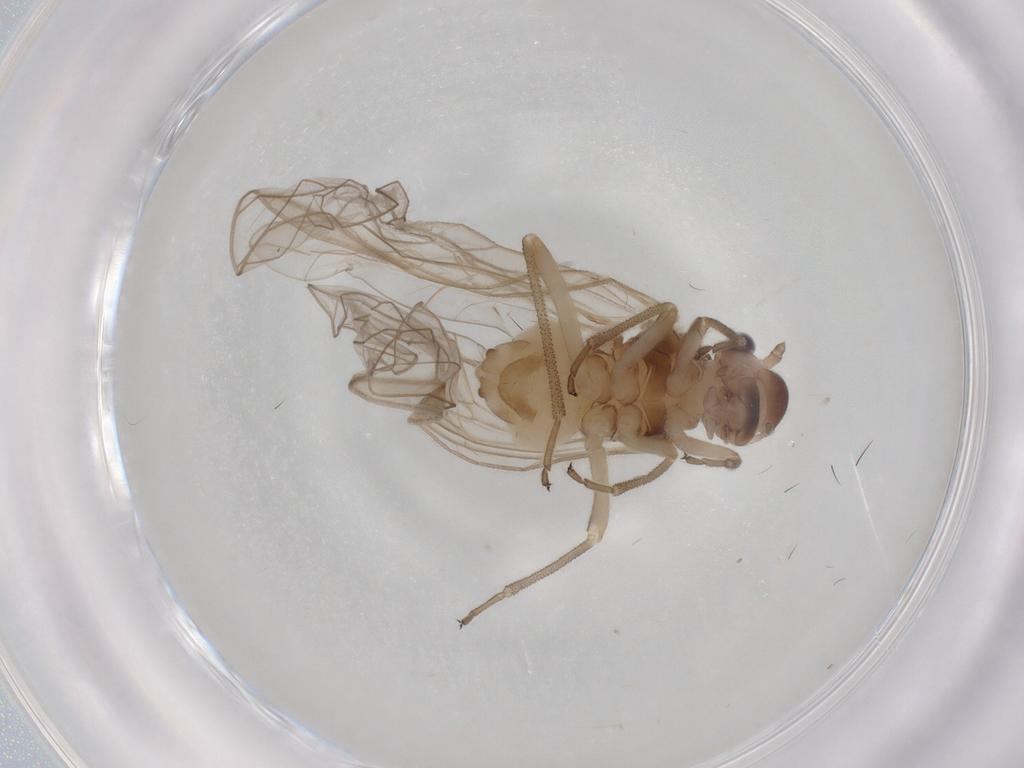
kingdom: Animalia
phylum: Arthropoda
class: Insecta
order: Psocodea
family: Stenopsocidae
